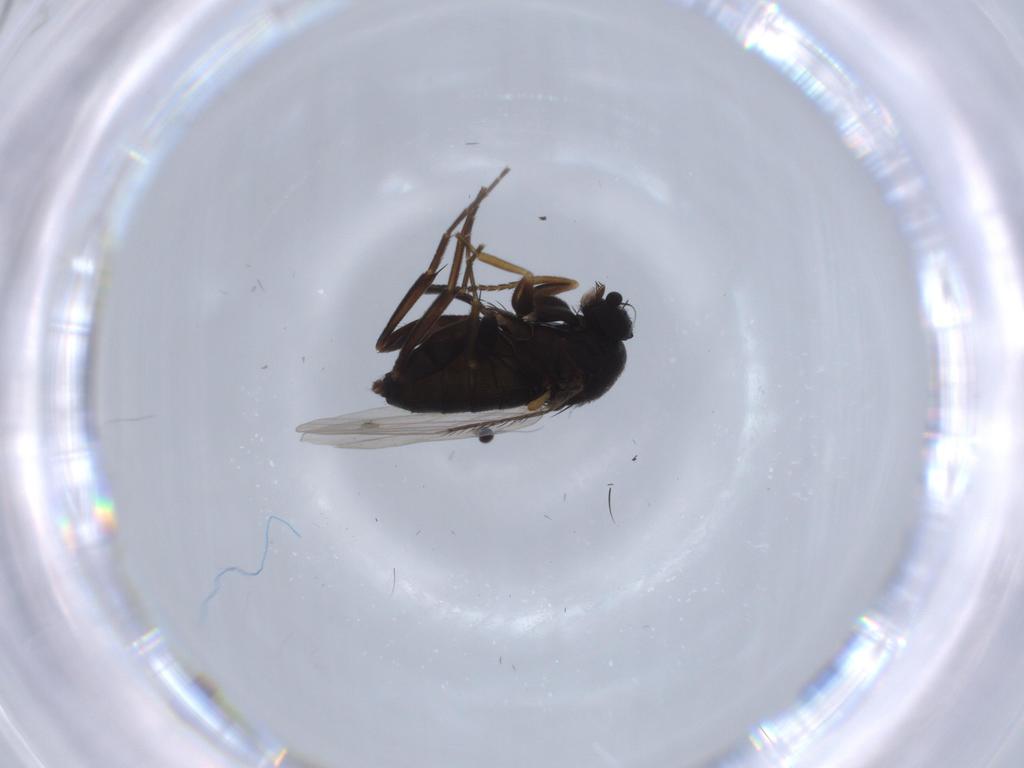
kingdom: Animalia
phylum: Arthropoda
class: Insecta
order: Diptera
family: Phoridae
